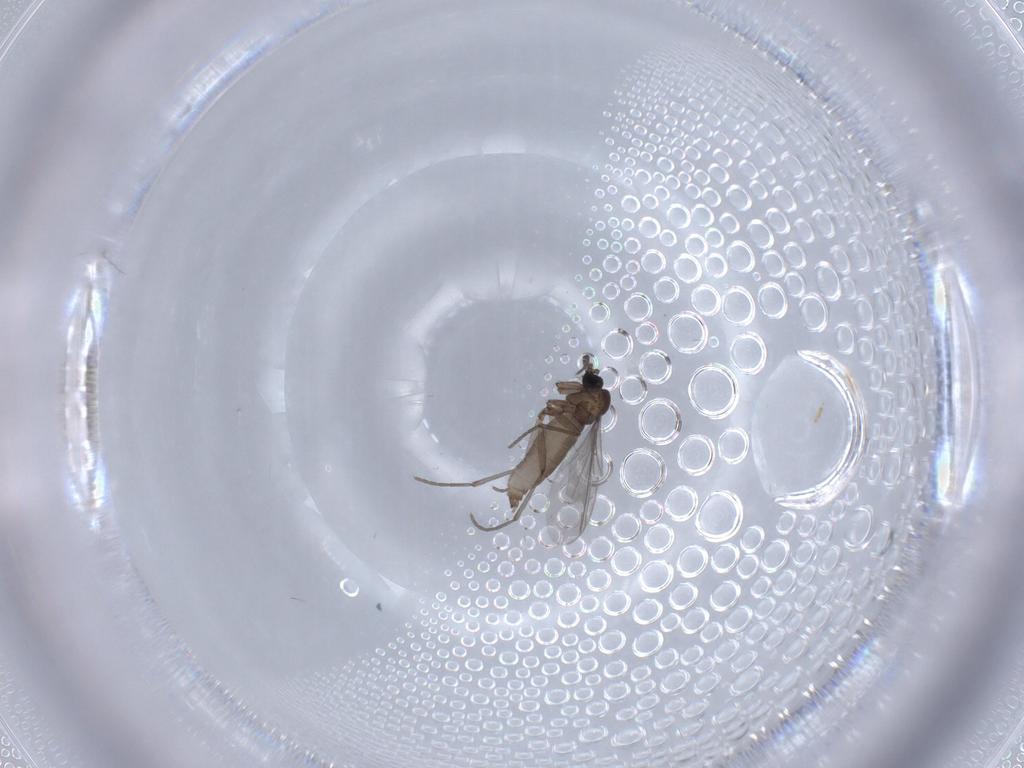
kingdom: Animalia
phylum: Arthropoda
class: Insecta
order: Diptera
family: Sciaridae
